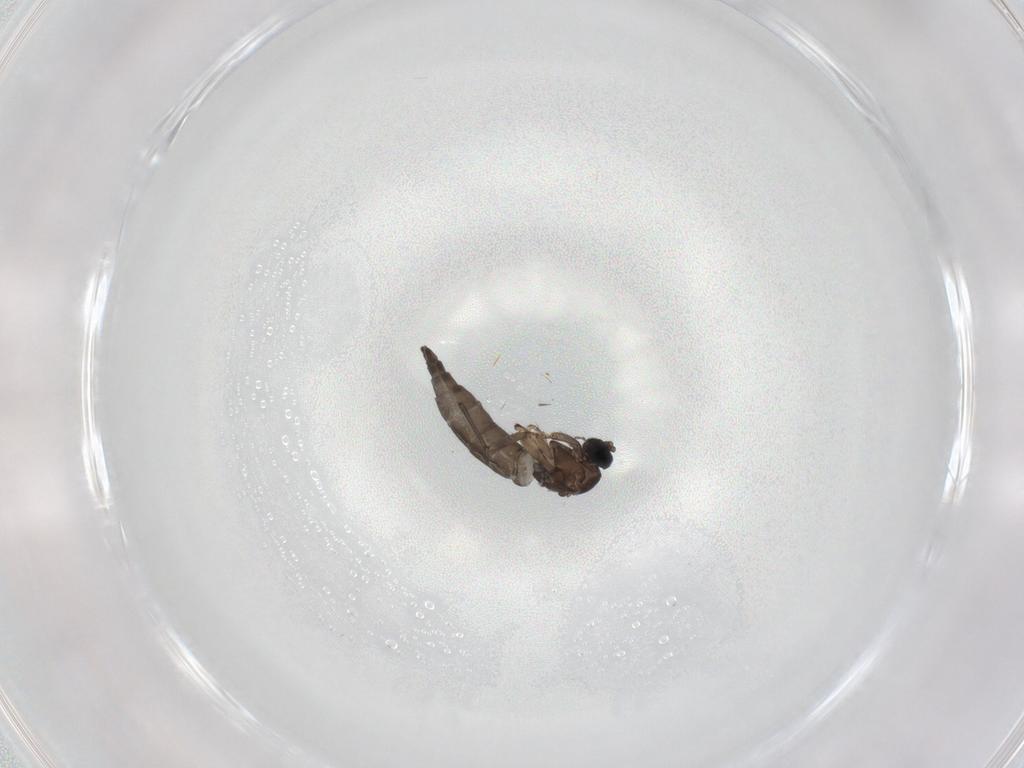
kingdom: Animalia
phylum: Arthropoda
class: Insecta
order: Diptera
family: Sciaridae
